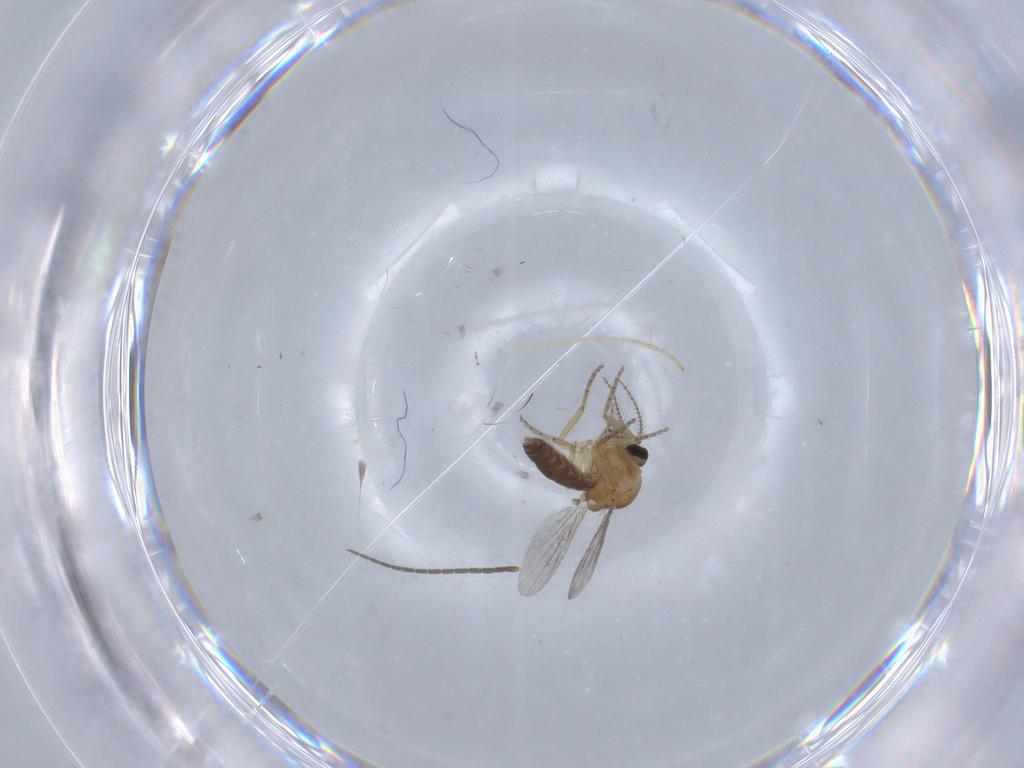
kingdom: Animalia
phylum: Arthropoda
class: Insecta
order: Diptera
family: Ceratopogonidae
